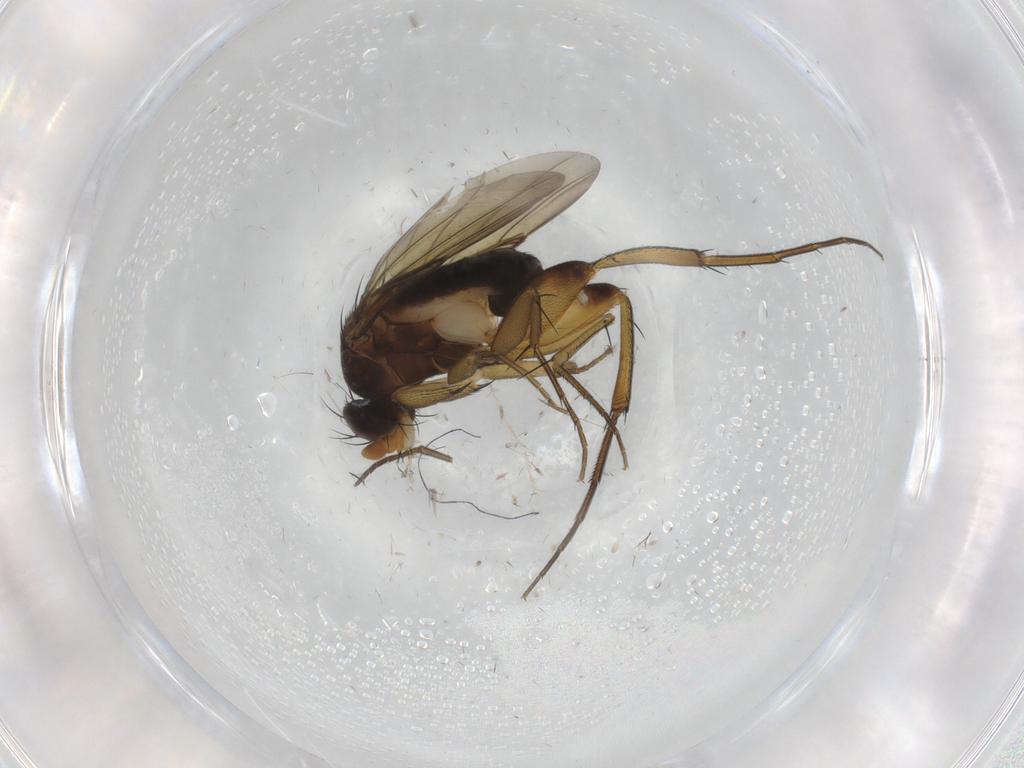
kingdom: Animalia
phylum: Arthropoda
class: Insecta
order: Diptera
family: Phoridae
